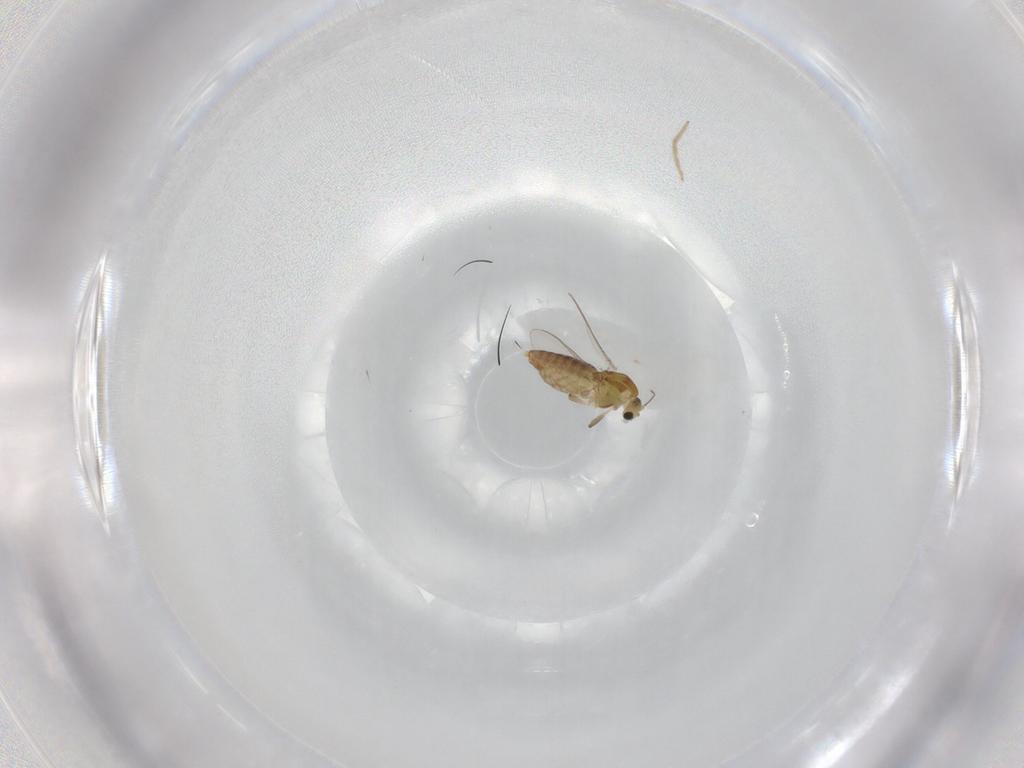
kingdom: Animalia
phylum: Arthropoda
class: Insecta
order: Diptera
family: Chironomidae
